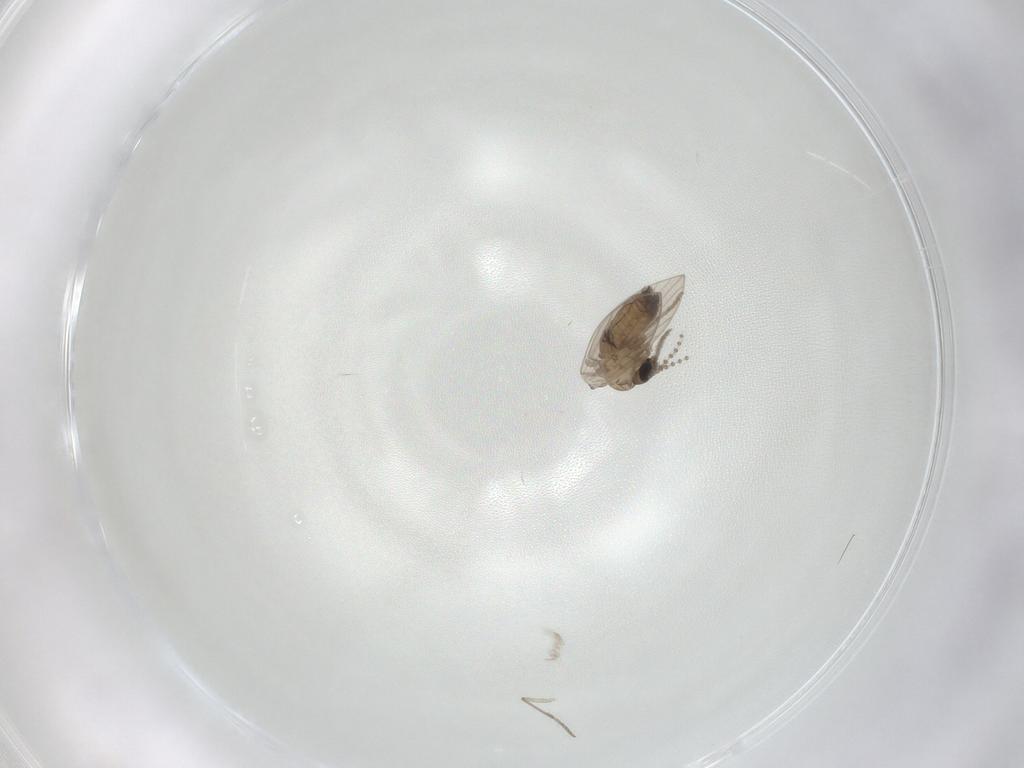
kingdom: Animalia
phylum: Arthropoda
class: Insecta
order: Diptera
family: Psychodidae
